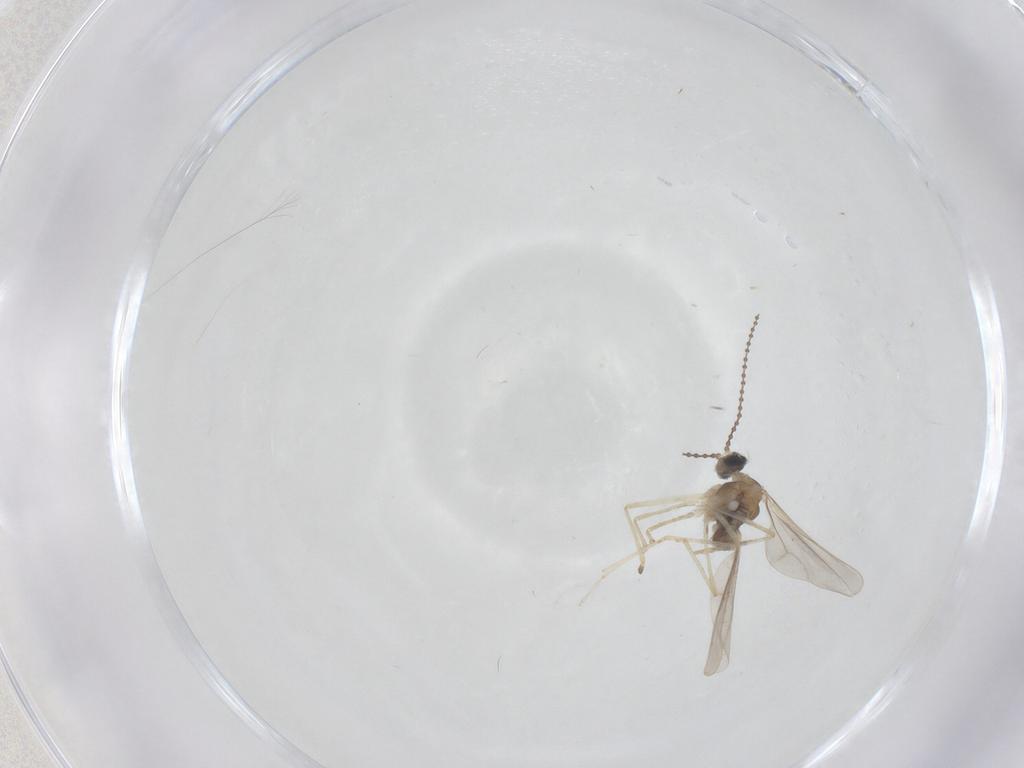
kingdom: Animalia
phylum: Arthropoda
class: Insecta
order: Diptera
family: Cecidomyiidae
